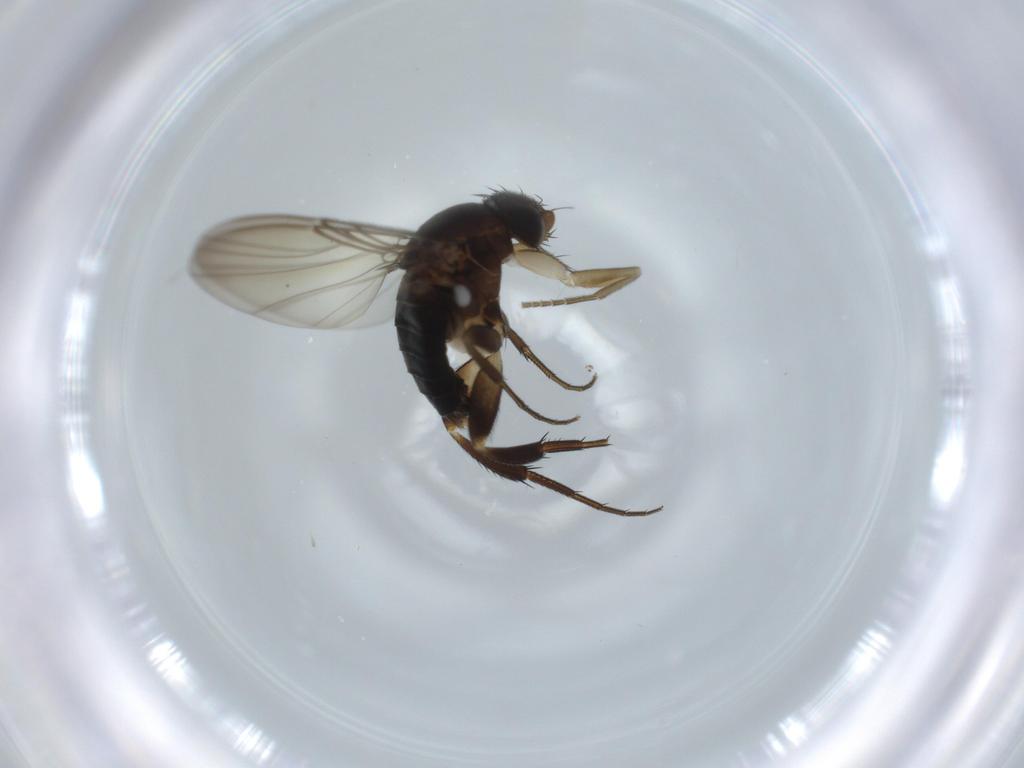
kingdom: Animalia
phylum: Arthropoda
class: Insecta
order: Diptera
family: Phoridae
